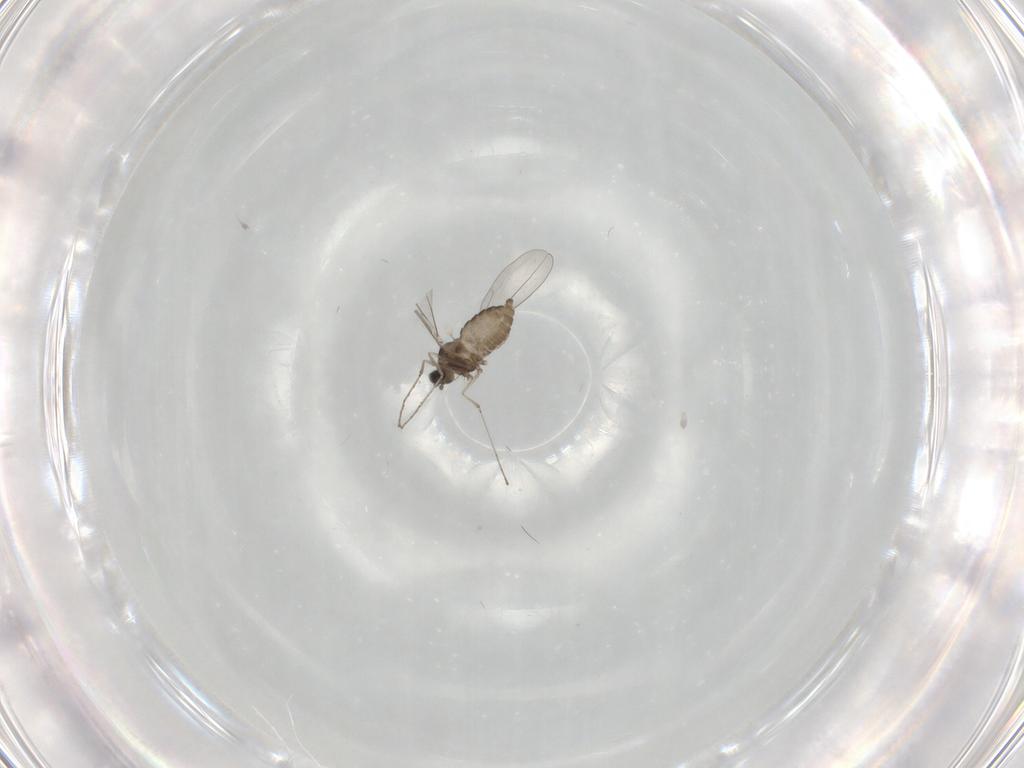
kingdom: Animalia
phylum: Arthropoda
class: Insecta
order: Diptera
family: Cecidomyiidae
